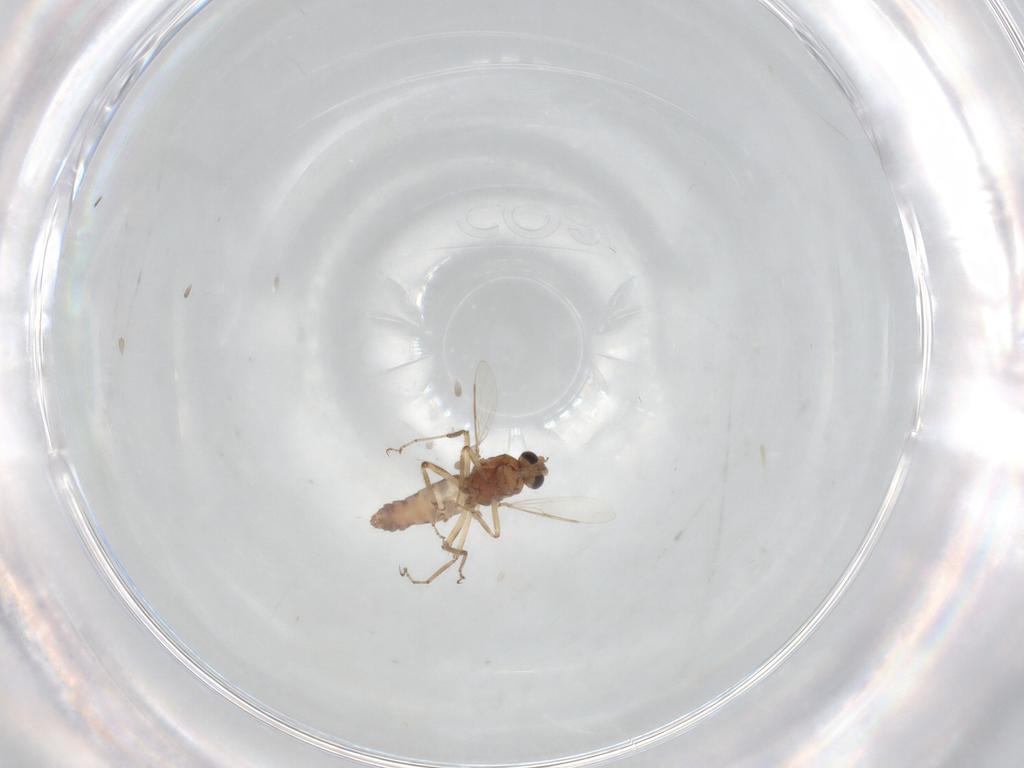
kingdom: Animalia
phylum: Arthropoda
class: Insecta
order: Diptera
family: Ceratopogonidae
